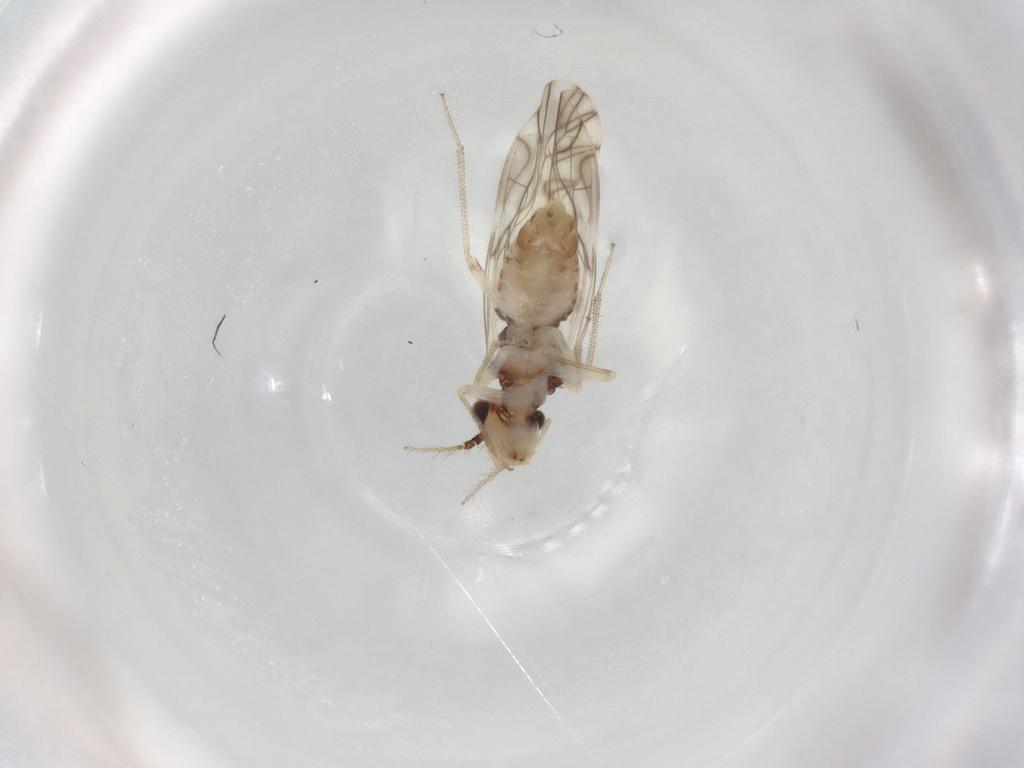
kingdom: Animalia
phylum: Arthropoda
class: Insecta
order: Psocodea
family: Caeciliusidae
